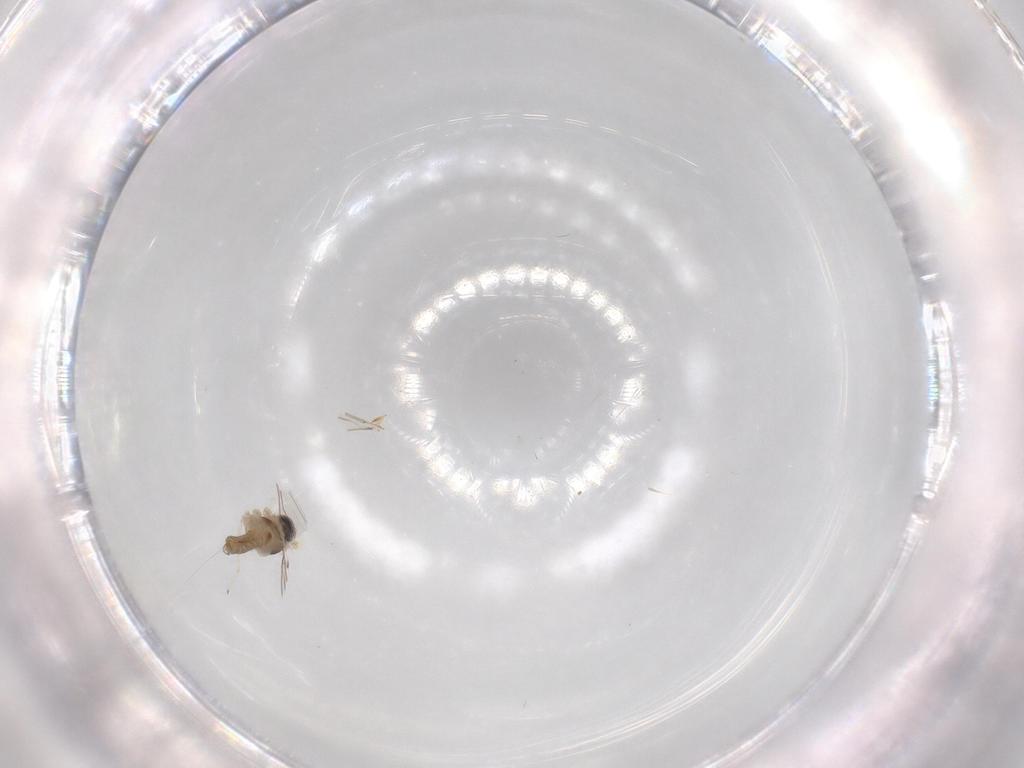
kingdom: Animalia
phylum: Arthropoda
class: Insecta
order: Diptera
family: Cecidomyiidae
